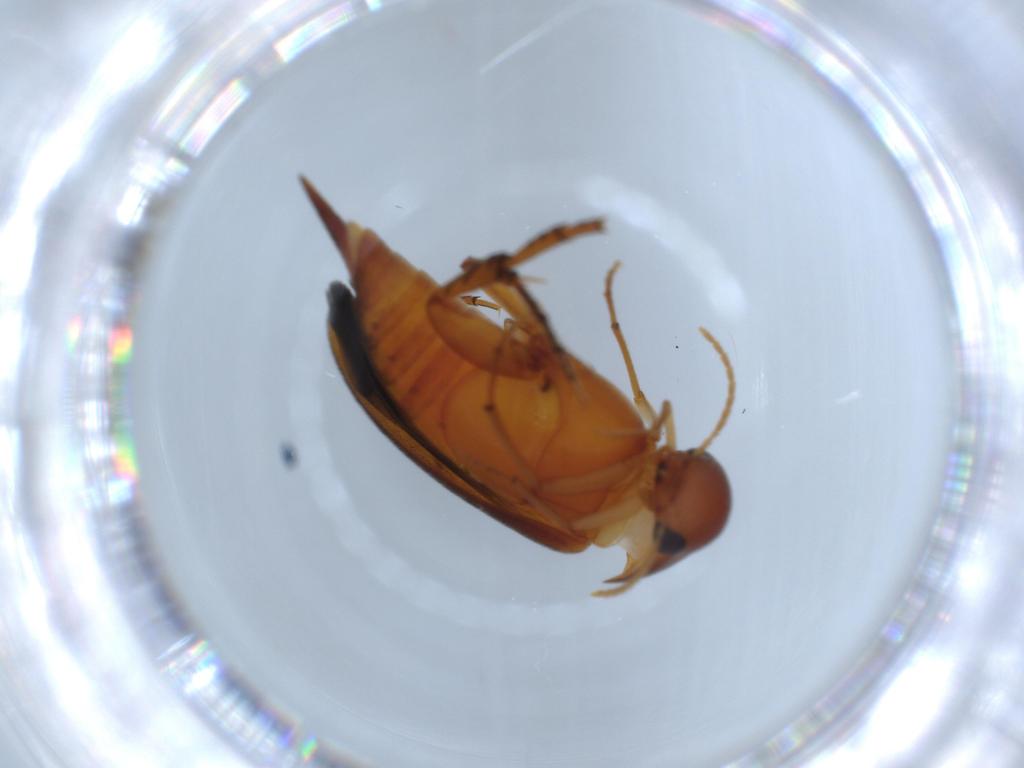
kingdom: Animalia
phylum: Arthropoda
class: Insecta
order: Coleoptera
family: Mordellidae
